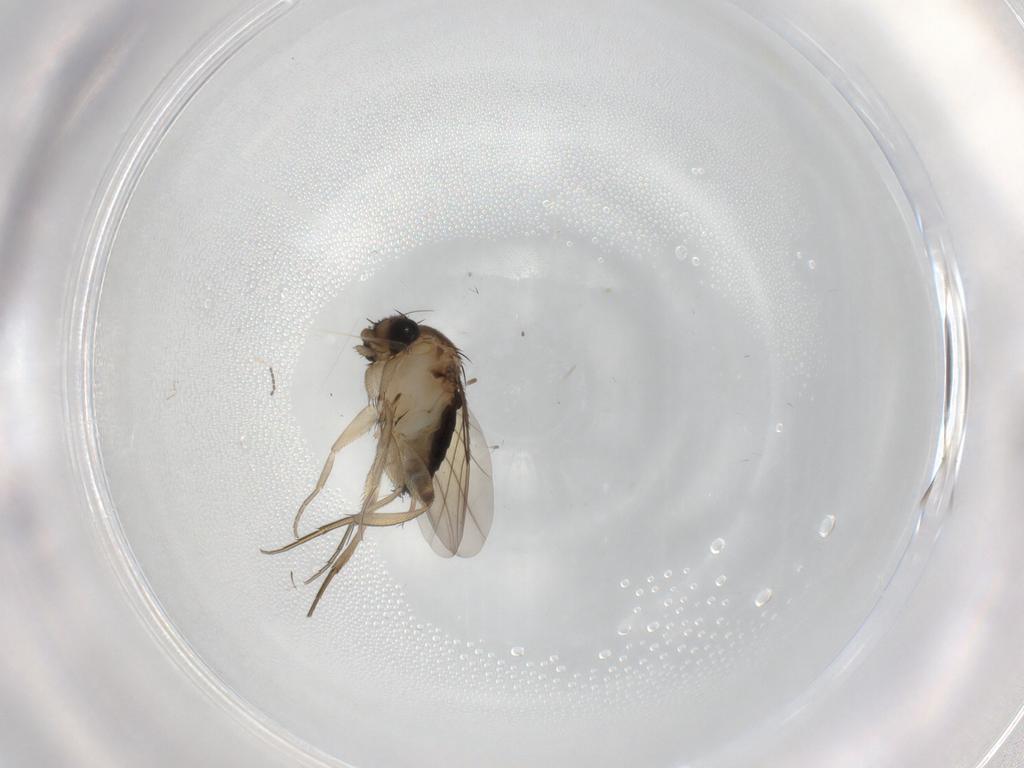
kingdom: Animalia
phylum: Arthropoda
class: Insecta
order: Diptera
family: Phoridae
